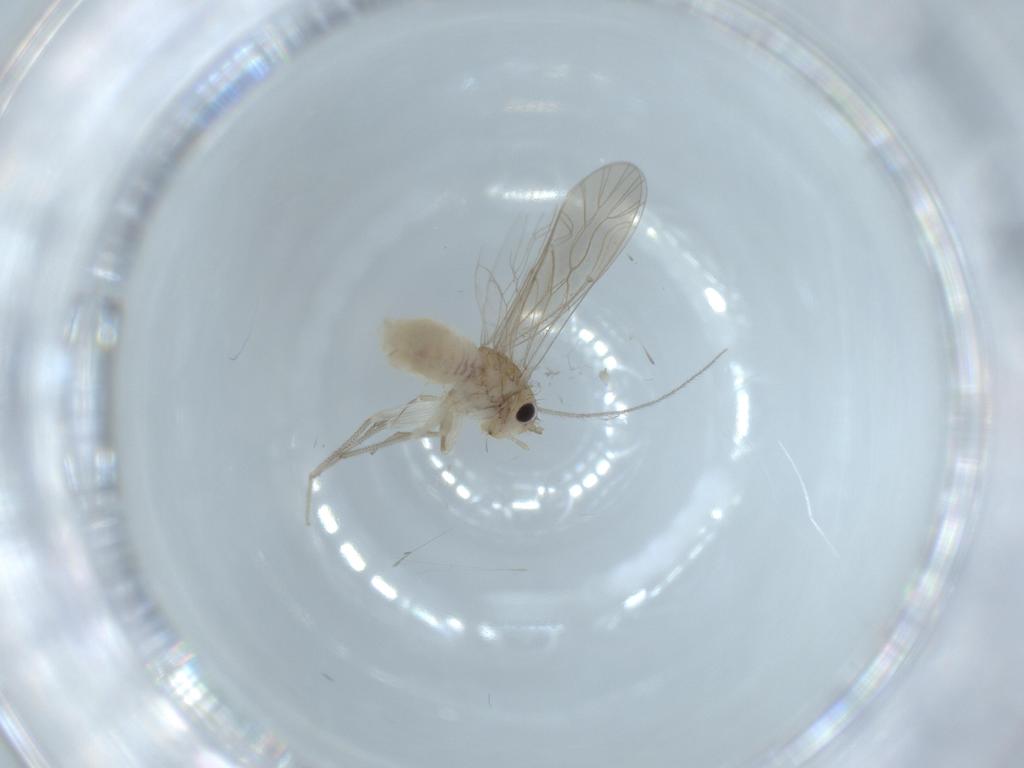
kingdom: Animalia
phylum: Arthropoda
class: Insecta
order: Psocodea
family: Caeciliusidae
